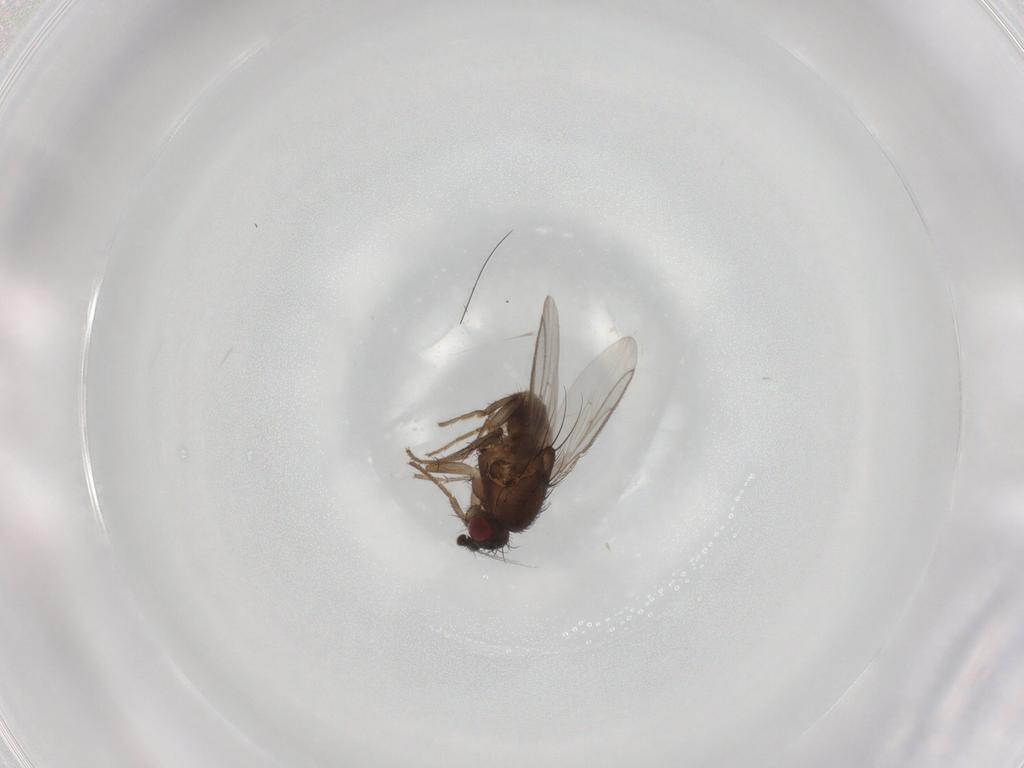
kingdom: Animalia
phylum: Arthropoda
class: Insecta
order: Diptera
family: Sphaeroceridae
